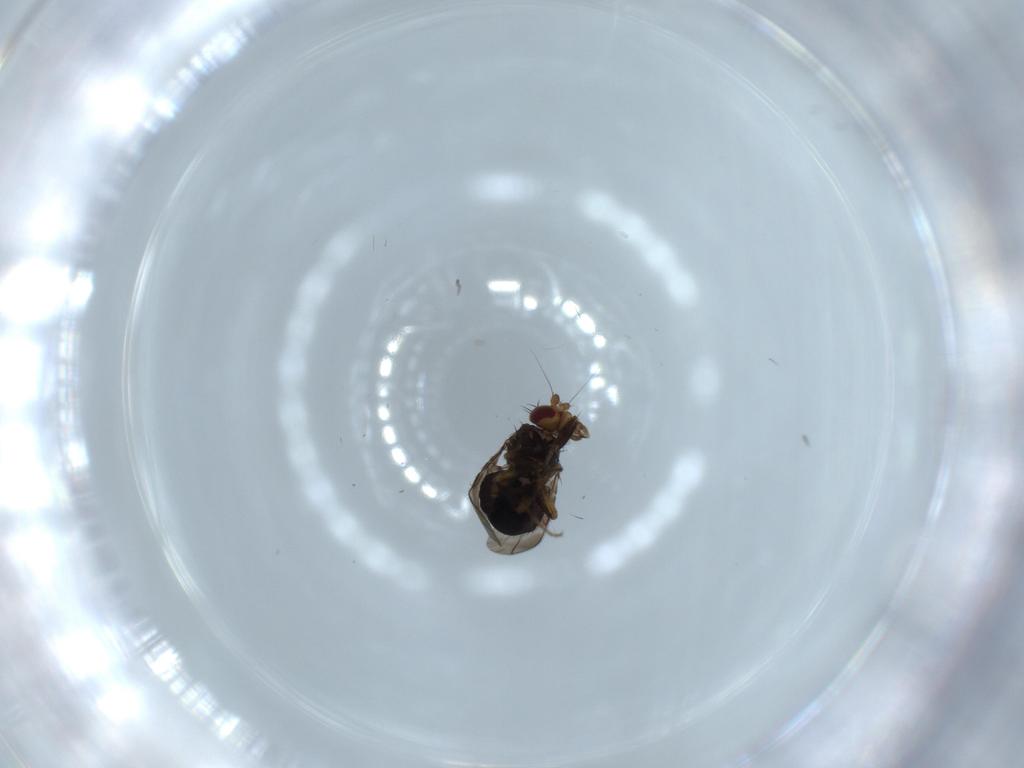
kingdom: Animalia
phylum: Arthropoda
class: Insecta
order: Diptera
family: Sphaeroceridae
